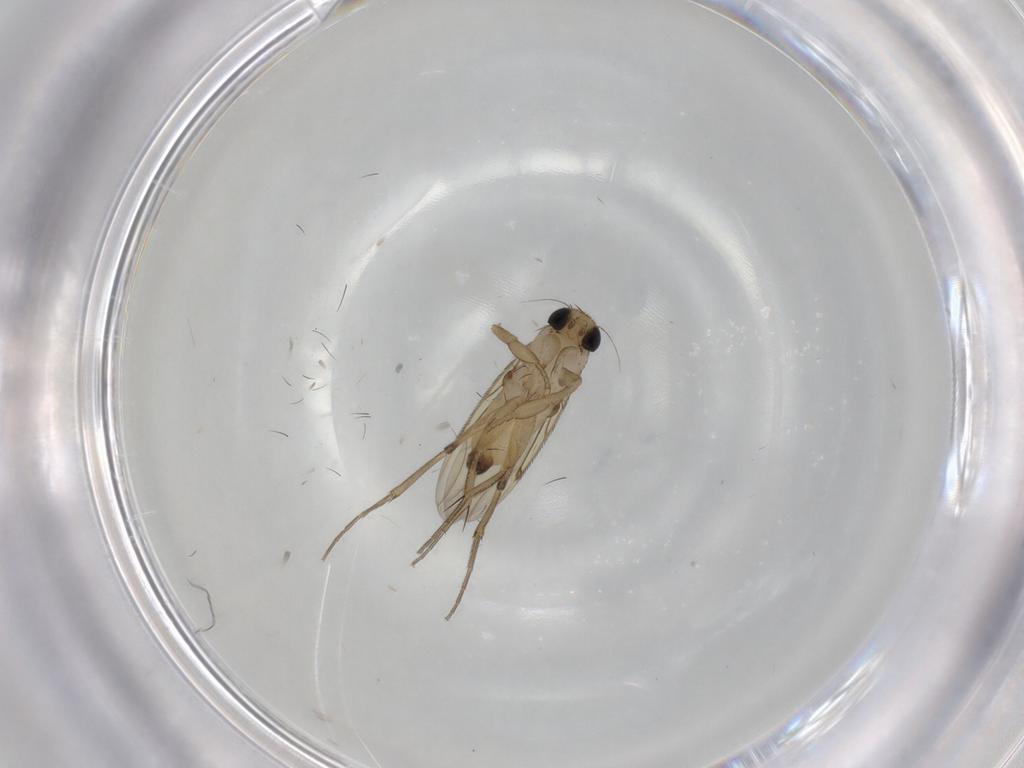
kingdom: Animalia
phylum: Arthropoda
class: Insecta
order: Diptera
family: Phoridae
